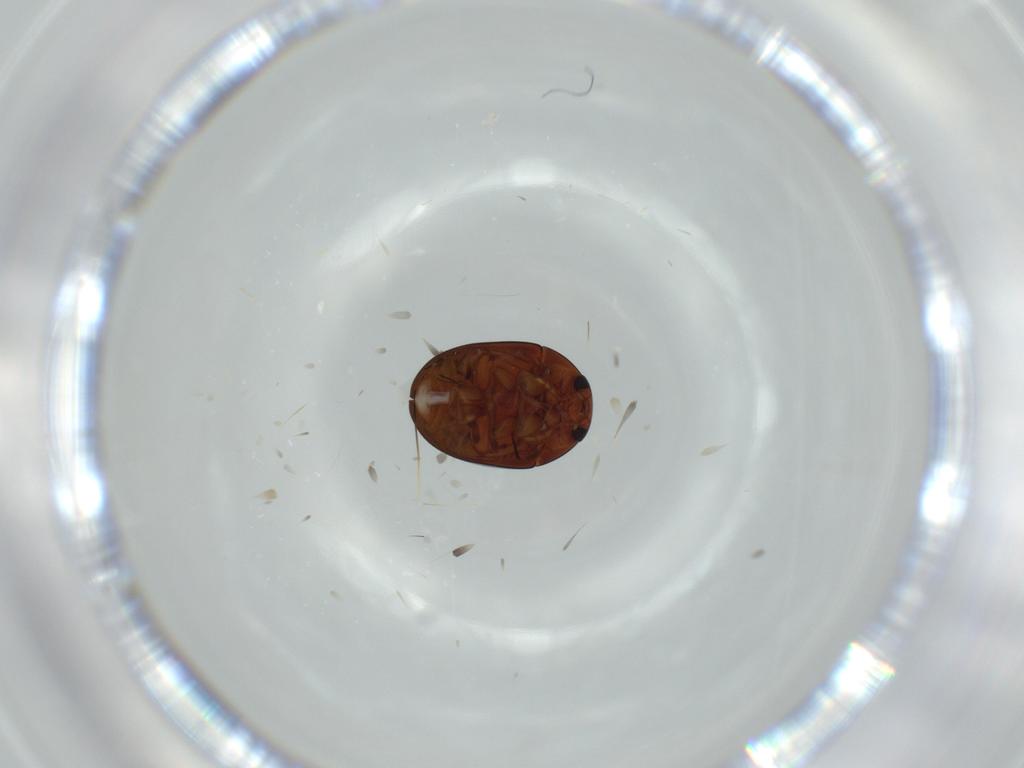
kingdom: Animalia
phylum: Arthropoda
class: Insecta
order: Coleoptera
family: Phalacridae
